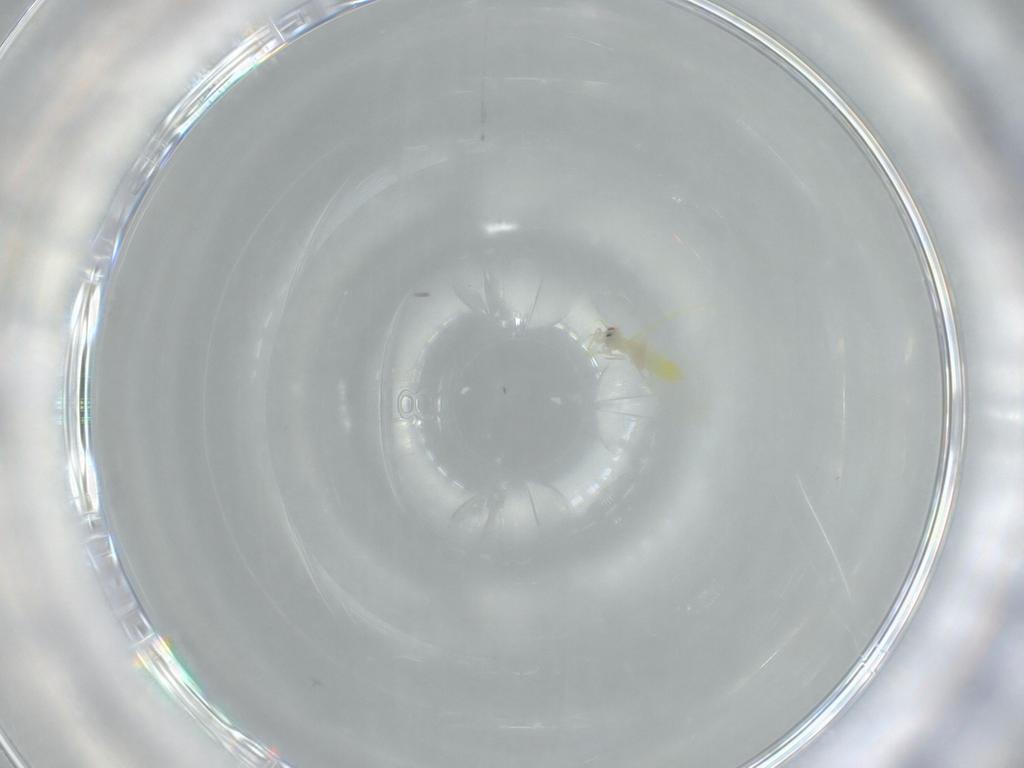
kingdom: Animalia
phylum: Arthropoda
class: Insecta
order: Hemiptera
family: Aleyrodidae
